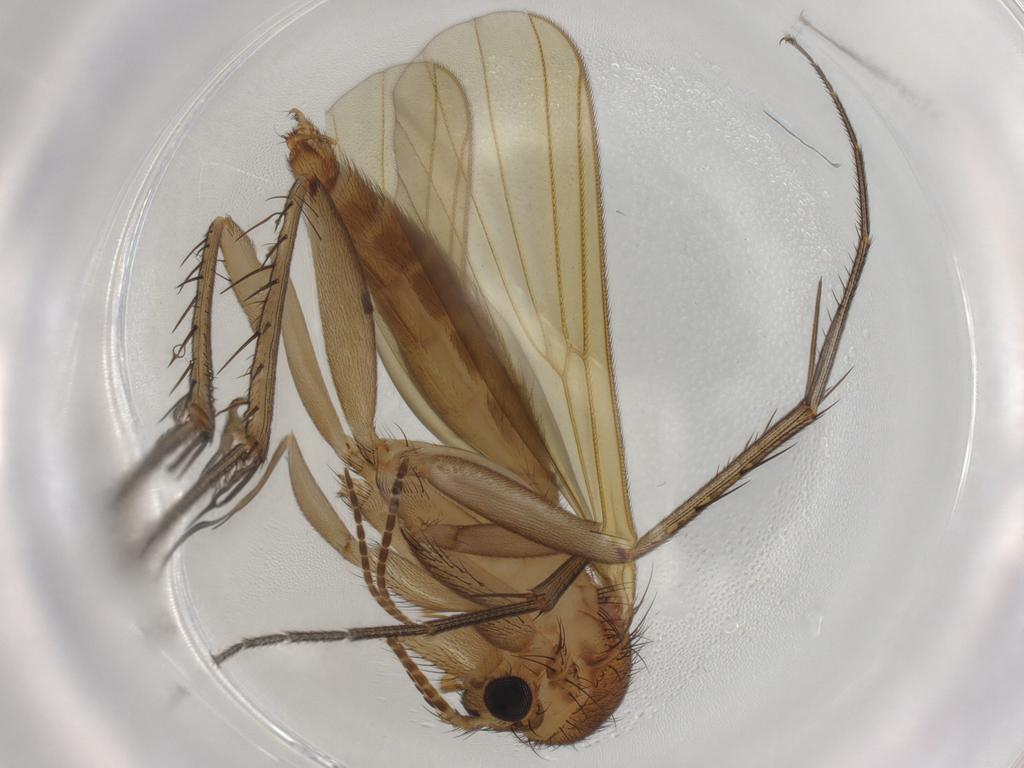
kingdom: Animalia
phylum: Arthropoda
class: Insecta
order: Diptera
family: Mycetophilidae
